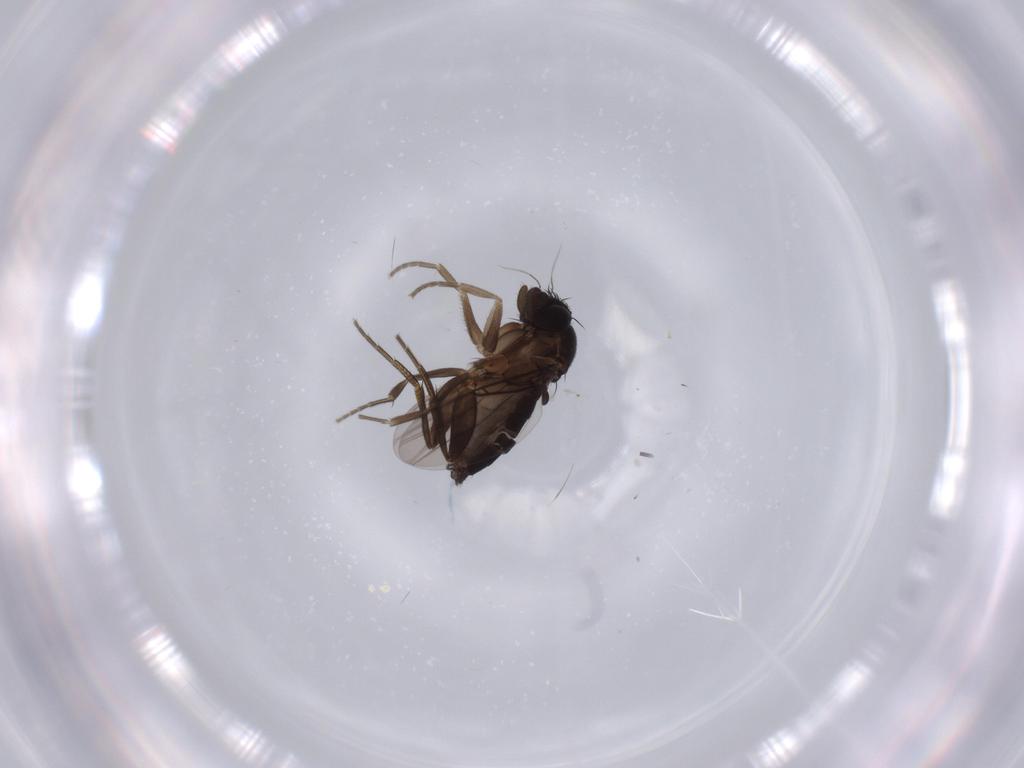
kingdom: Animalia
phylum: Arthropoda
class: Insecta
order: Diptera
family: Phoridae
